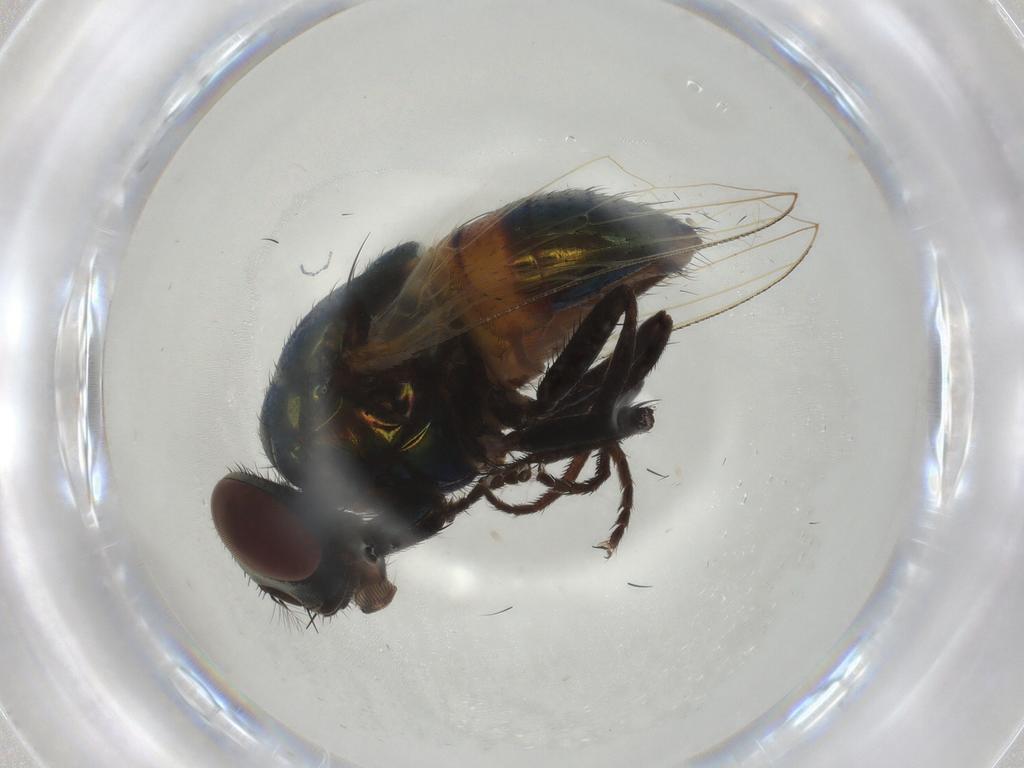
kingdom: Animalia
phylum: Arthropoda
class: Insecta
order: Diptera
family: Muscidae
